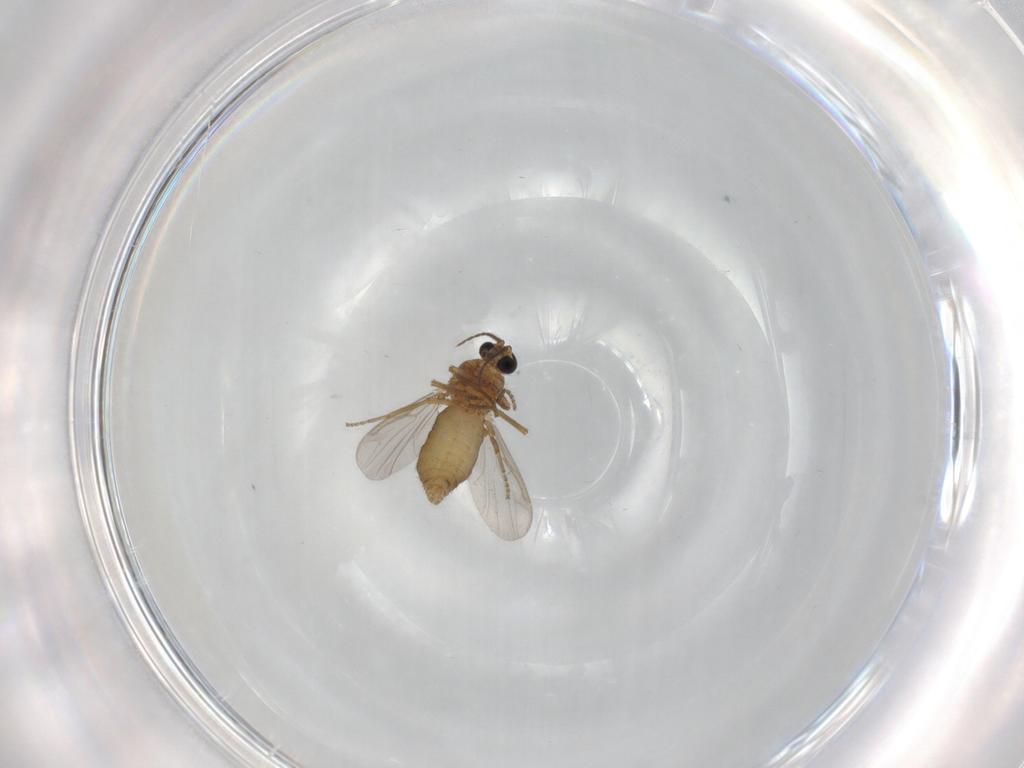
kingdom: Animalia
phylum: Arthropoda
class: Insecta
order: Diptera
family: Ceratopogonidae
